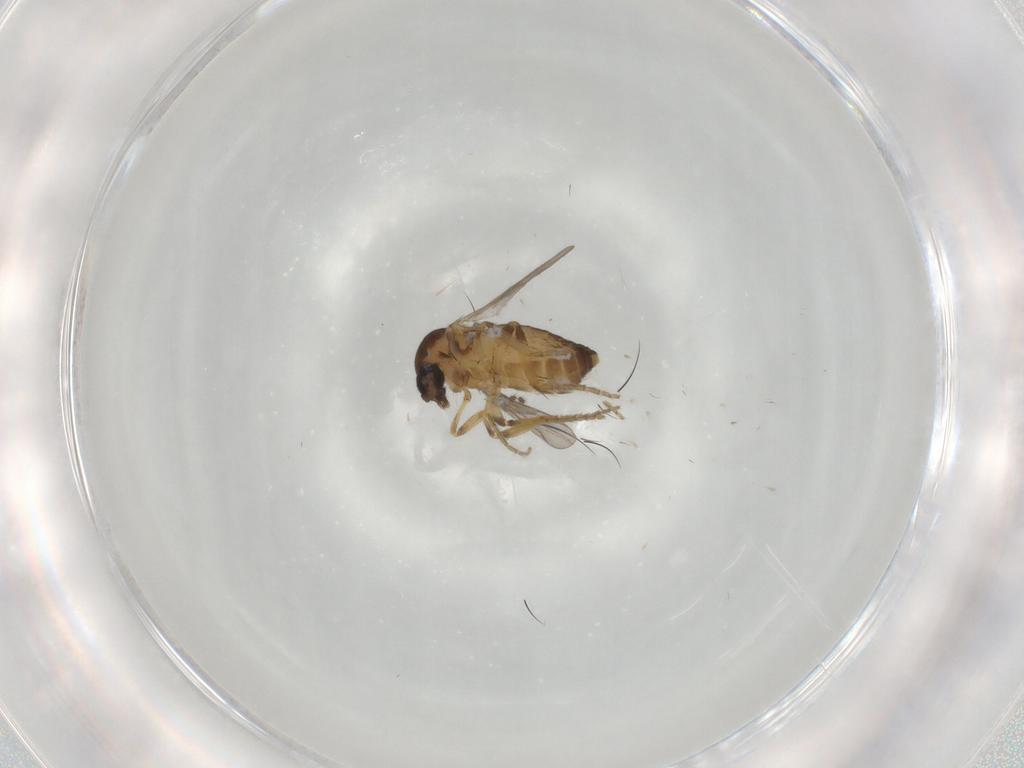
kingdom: Animalia
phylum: Arthropoda
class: Insecta
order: Diptera
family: Ceratopogonidae
